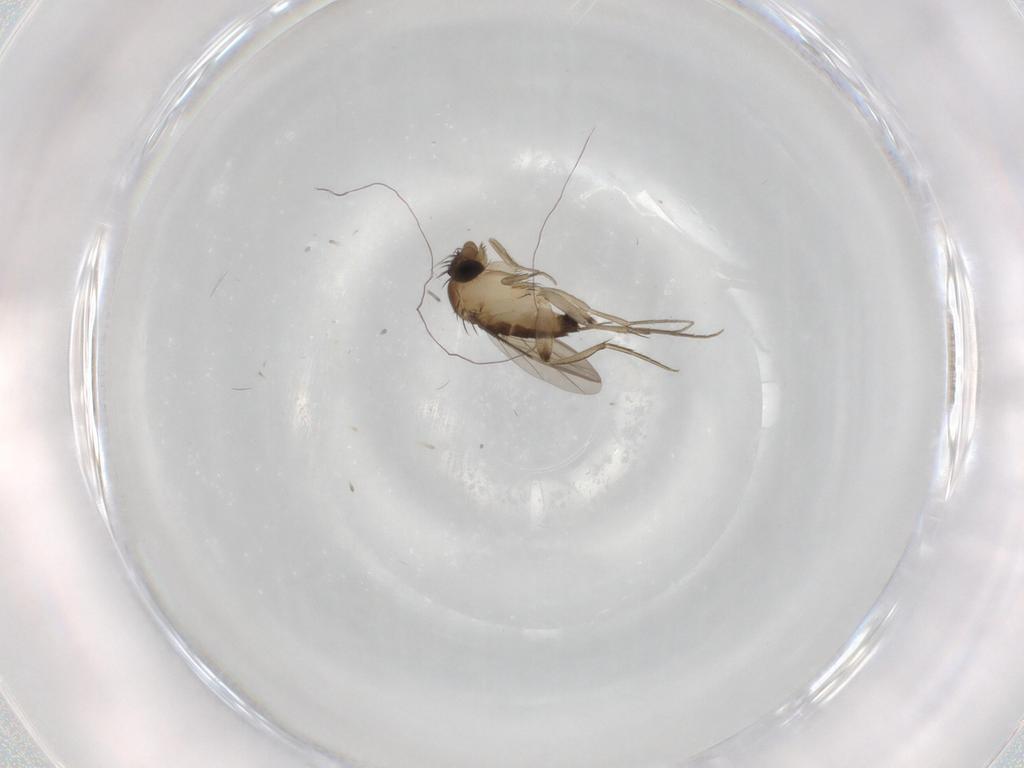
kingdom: Animalia
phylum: Arthropoda
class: Insecta
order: Diptera
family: Phoridae
